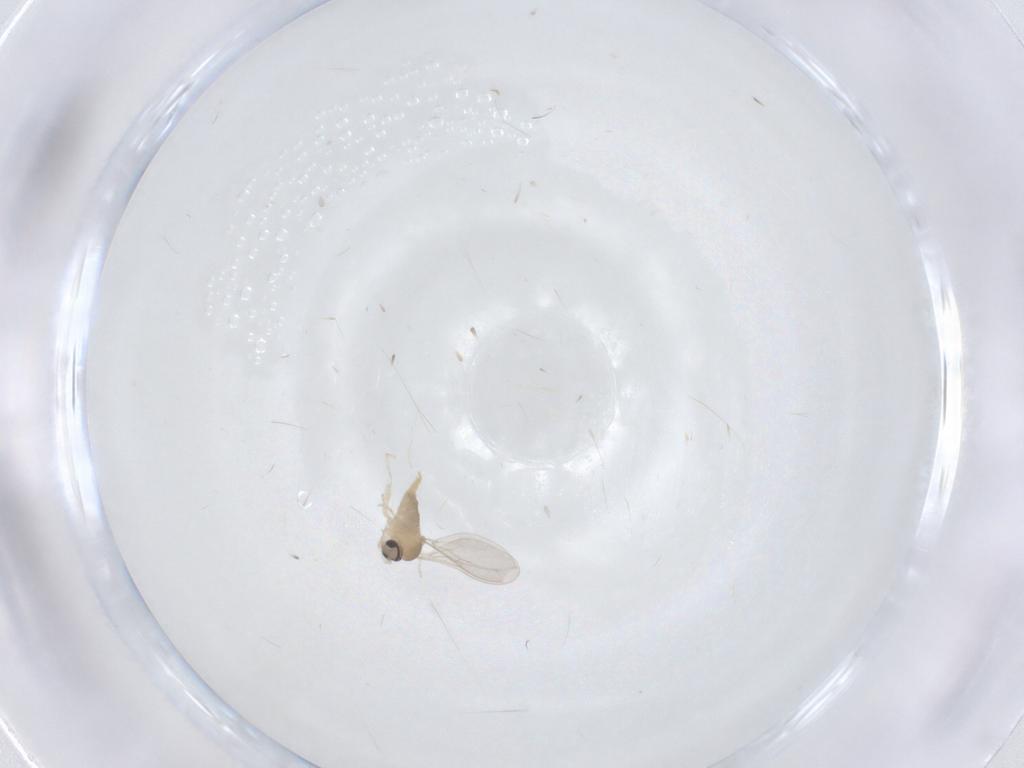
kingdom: Animalia
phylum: Arthropoda
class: Insecta
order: Diptera
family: Cecidomyiidae
